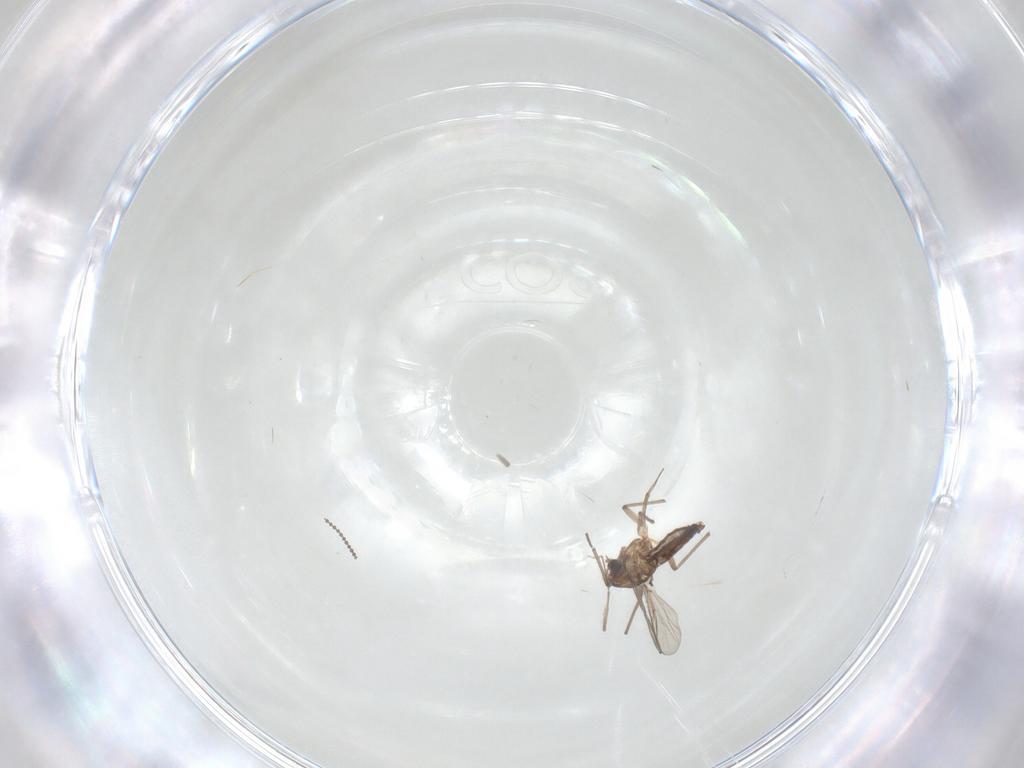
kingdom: Animalia
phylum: Arthropoda
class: Insecta
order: Diptera
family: Chironomidae
